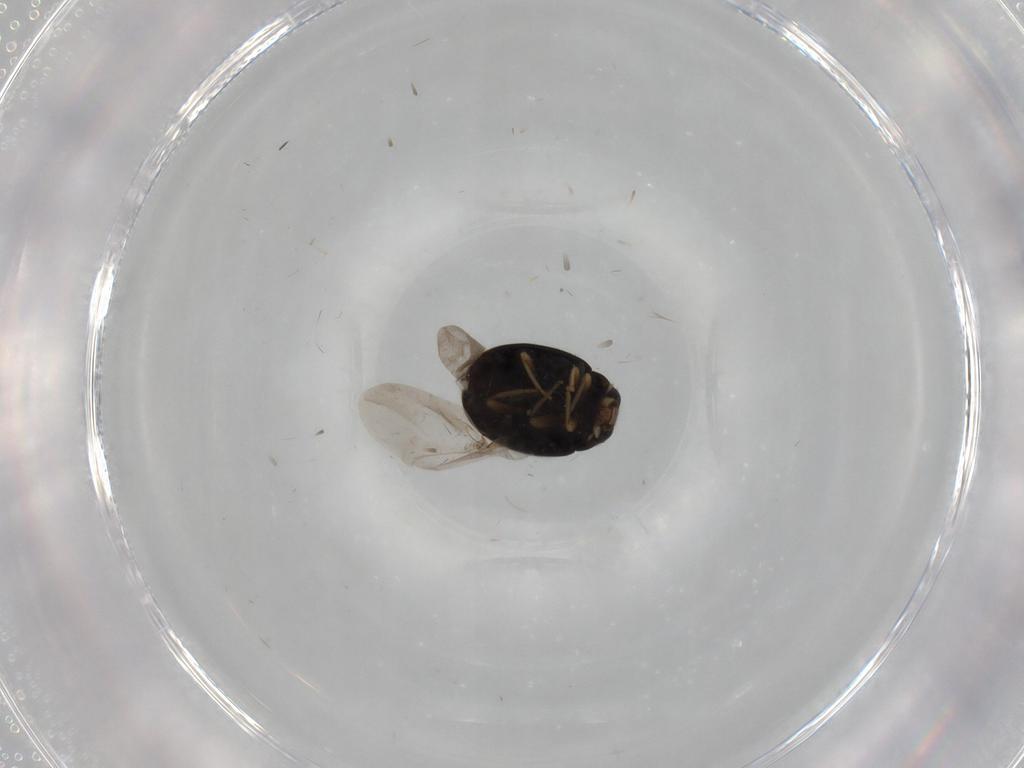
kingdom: Animalia
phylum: Arthropoda
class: Insecta
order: Coleoptera
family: Coccinellidae
